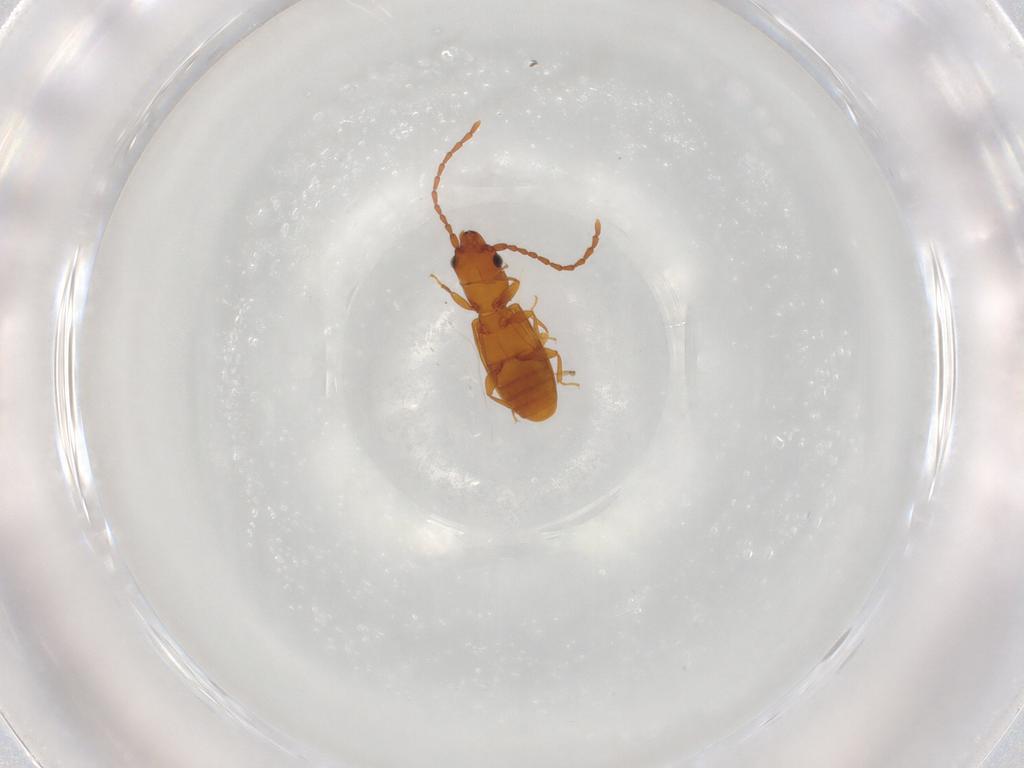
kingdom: Animalia
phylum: Arthropoda
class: Insecta
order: Coleoptera
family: Staphylinidae
